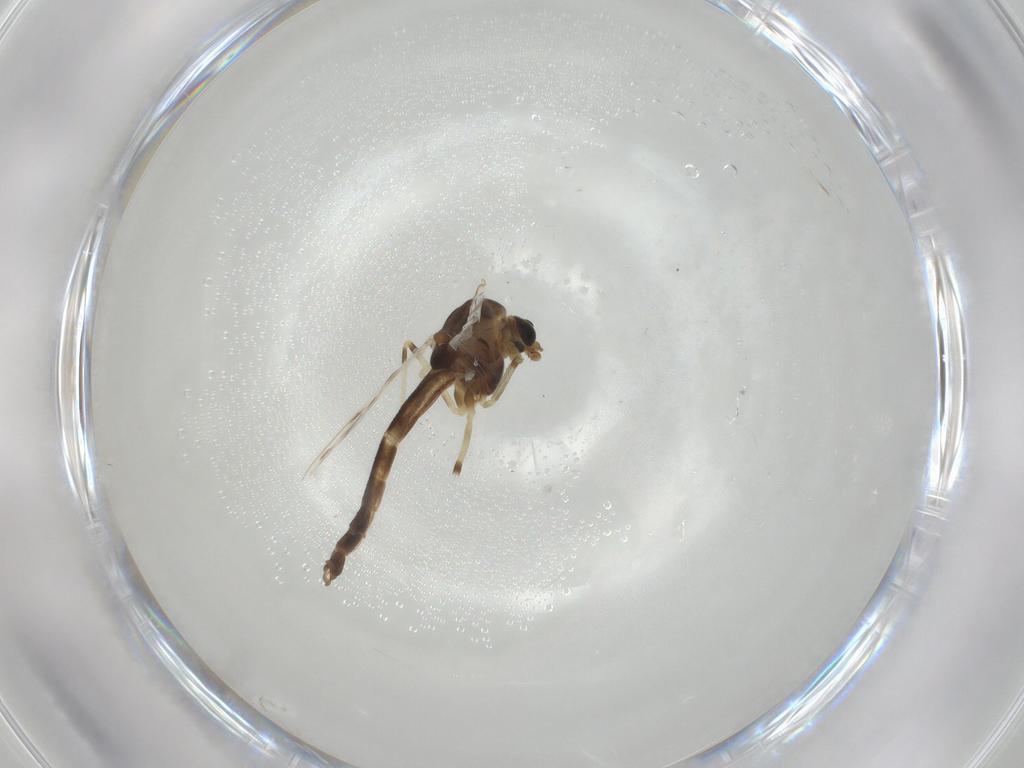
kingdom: Animalia
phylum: Arthropoda
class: Insecta
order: Diptera
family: Chironomidae
